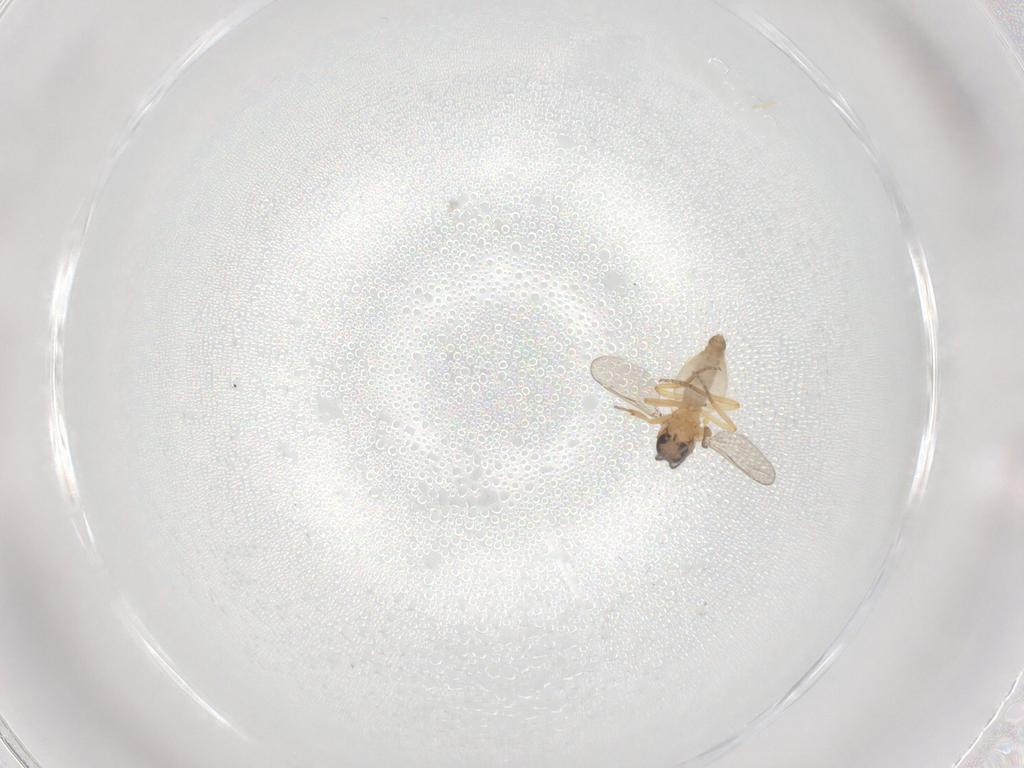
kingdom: Animalia
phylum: Arthropoda
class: Insecta
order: Diptera
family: Ceratopogonidae
